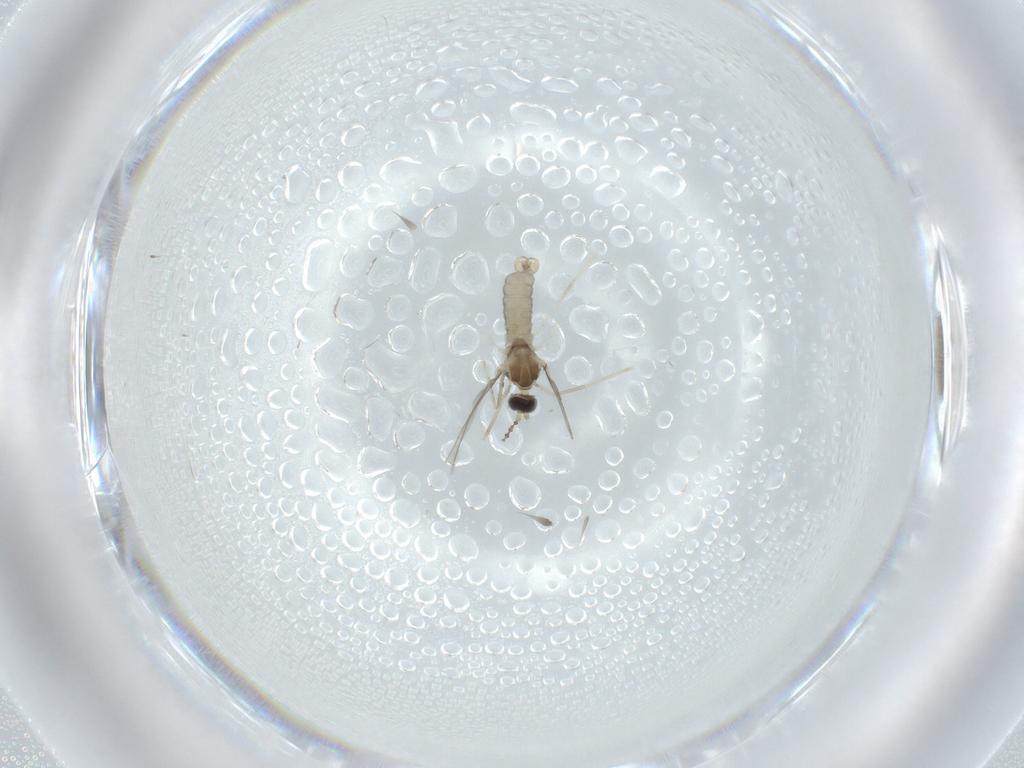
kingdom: Animalia
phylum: Arthropoda
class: Insecta
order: Diptera
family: Cecidomyiidae
